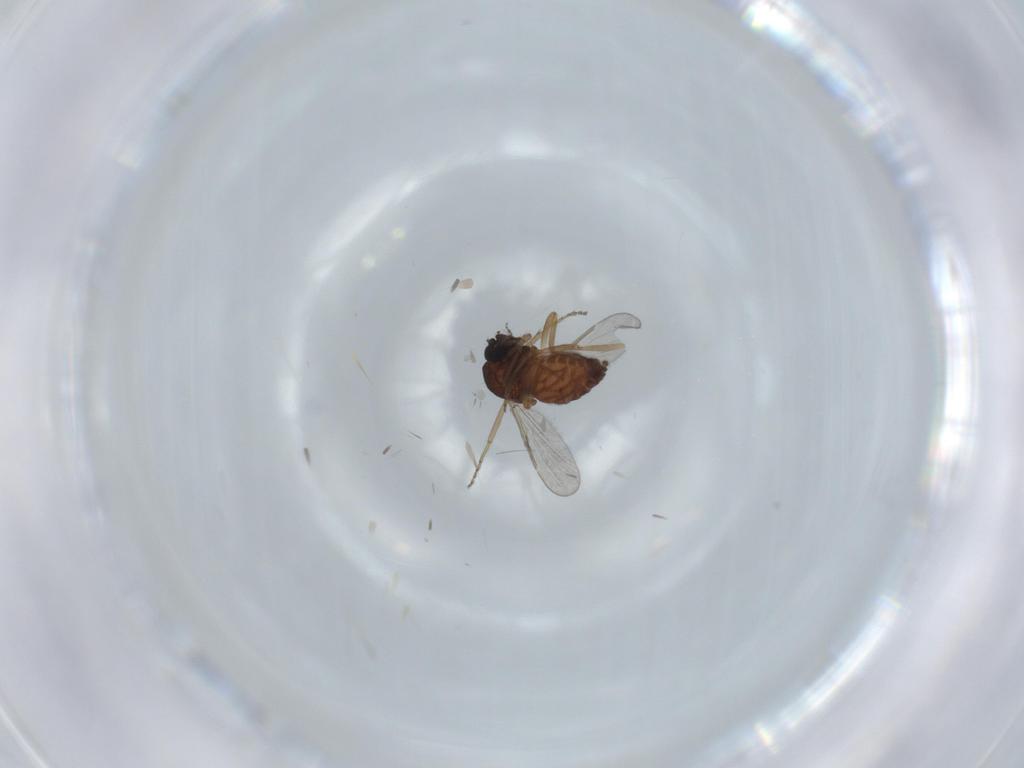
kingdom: Animalia
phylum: Arthropoda
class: Insecta
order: Diptera
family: Ceratopogonidae
